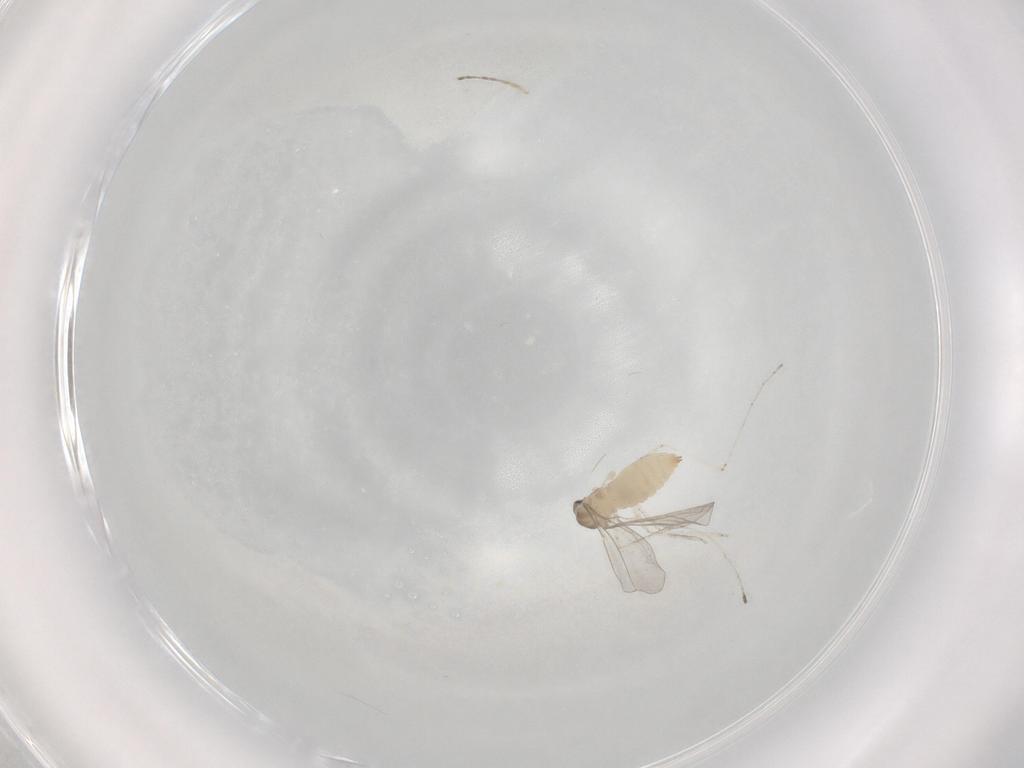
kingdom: Animalia
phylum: Arthropoda
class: Insecta
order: Diptera
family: Cecidomyiidae
